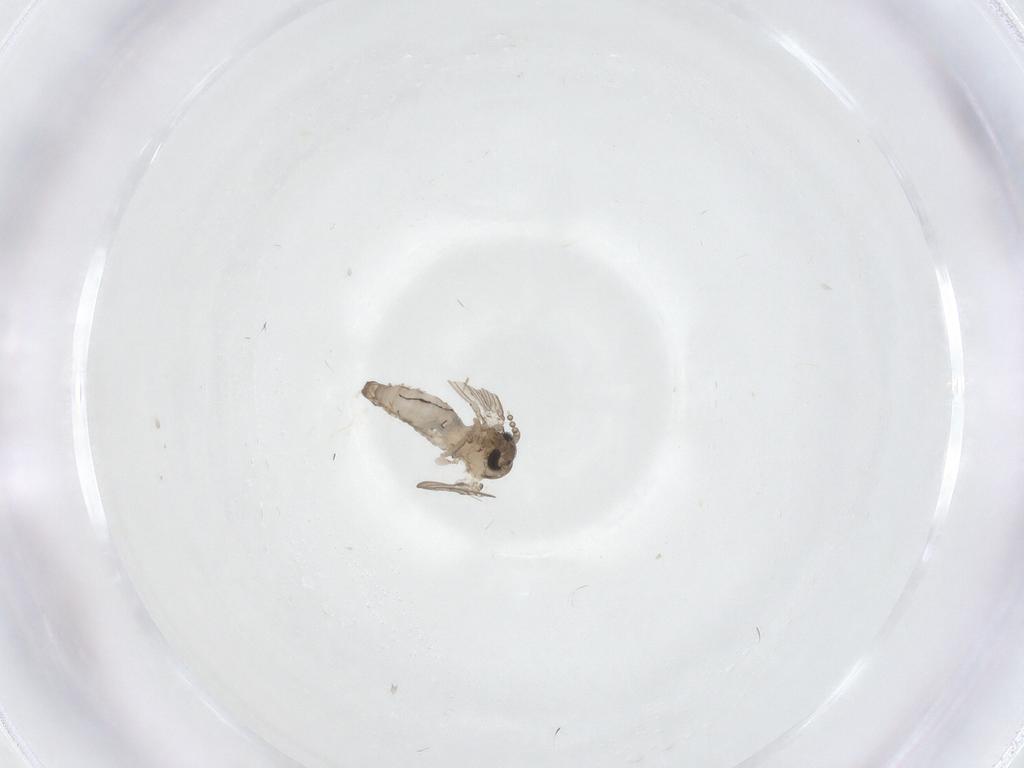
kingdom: Animalia
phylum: Arthropoda
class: Insecta
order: Diptera
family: Psychodidae
